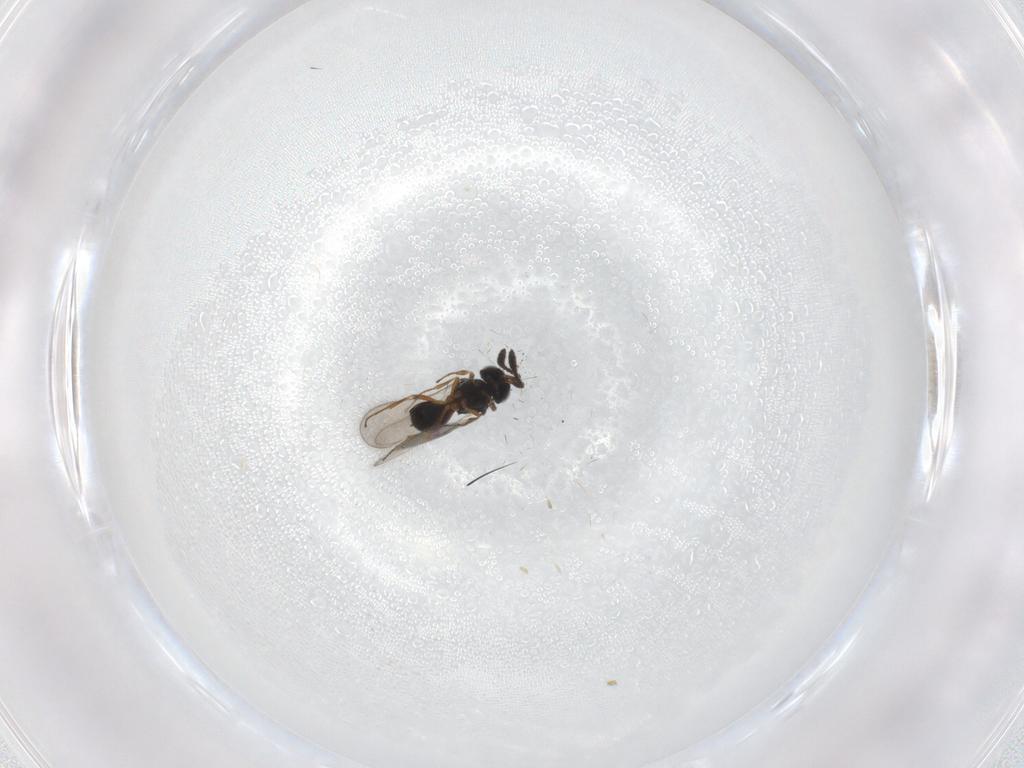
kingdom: Animalia
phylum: Arthropoda
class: Insecta
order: Hymenoptera
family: Scelionidae
